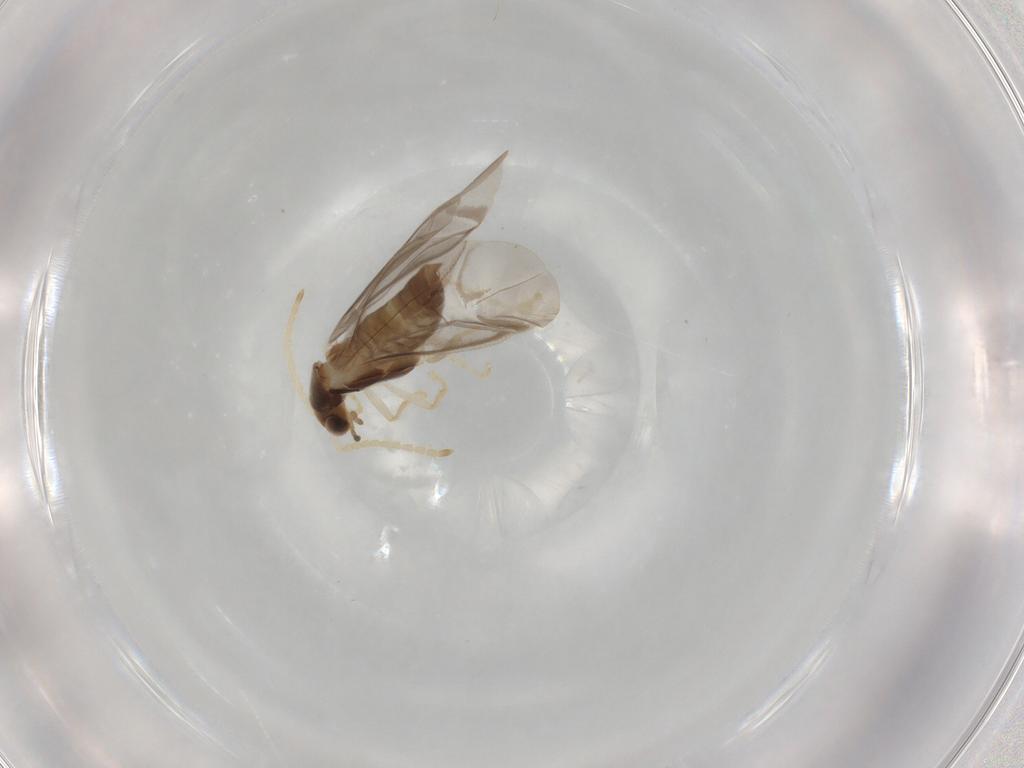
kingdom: Animalia
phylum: Arthropoda
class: Insecta
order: Coleoptera
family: Cantharidae
